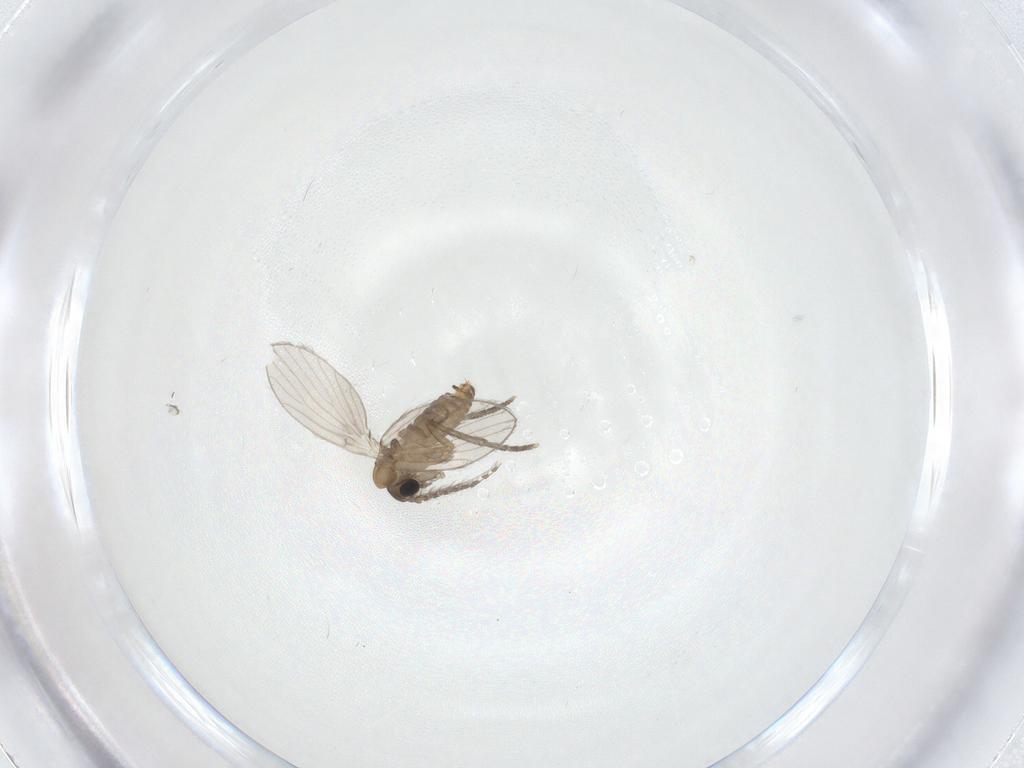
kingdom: Animalia
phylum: Arthropoda
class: Insecta
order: Diptera
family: Psychodidae
